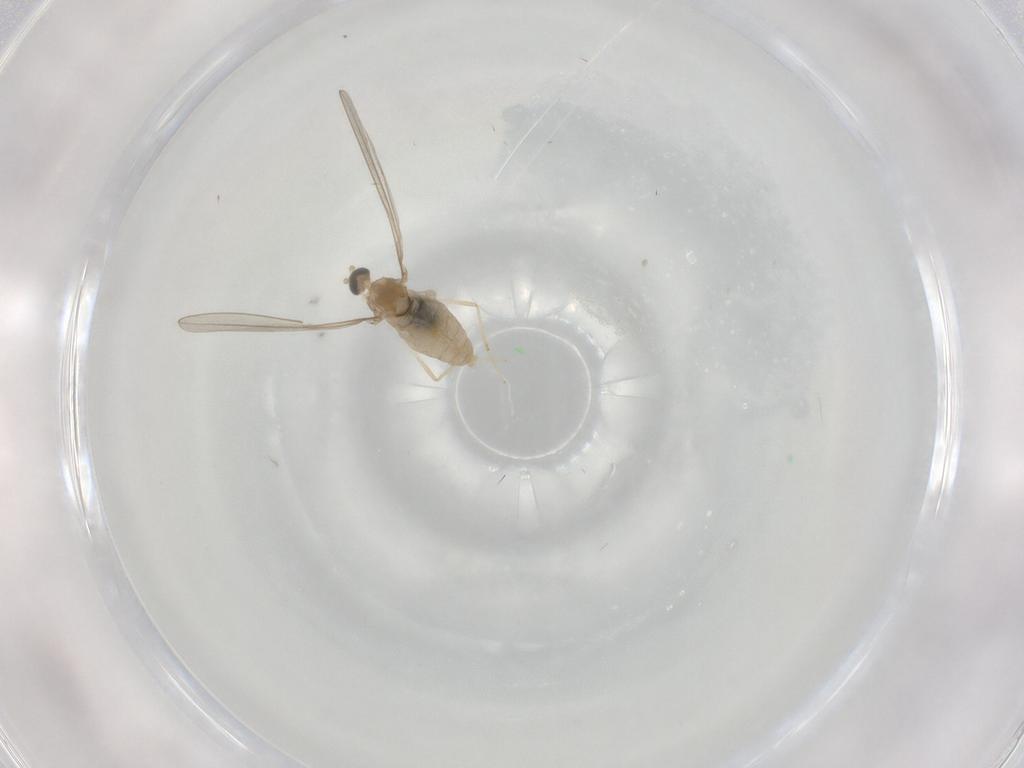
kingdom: Animalia
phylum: Arthropoda
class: Insecta
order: Diptera
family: Cecidomyiidae
